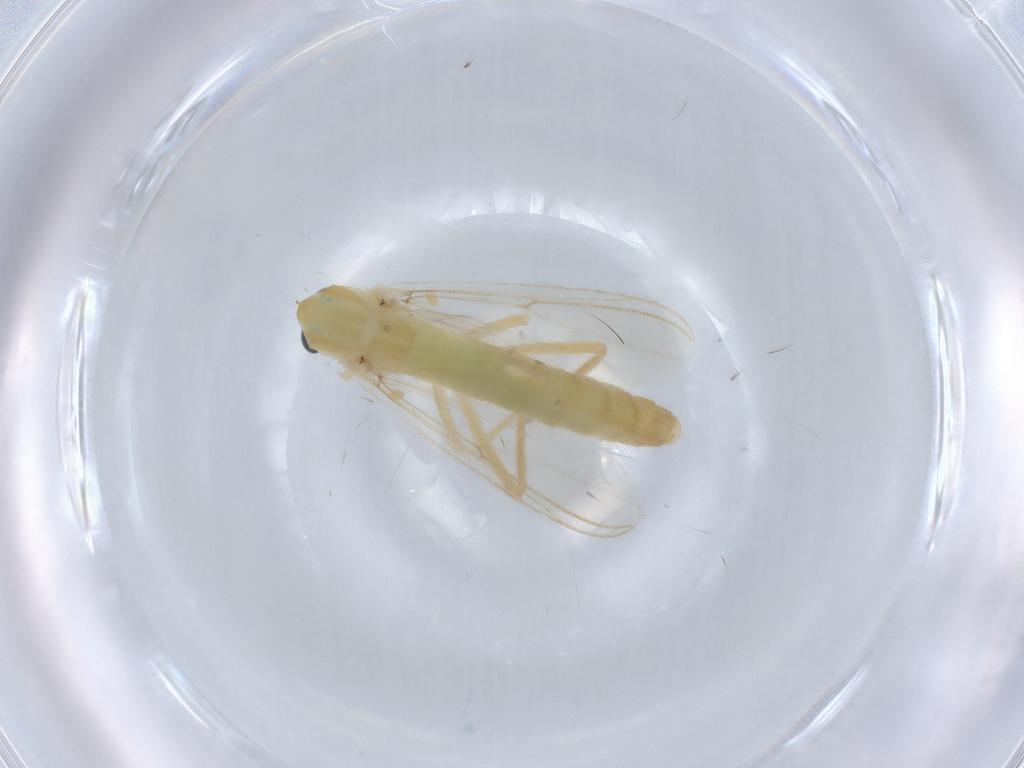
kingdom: Animalia
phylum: Arthropoda
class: Insecta
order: Diptera
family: Chironomidae
